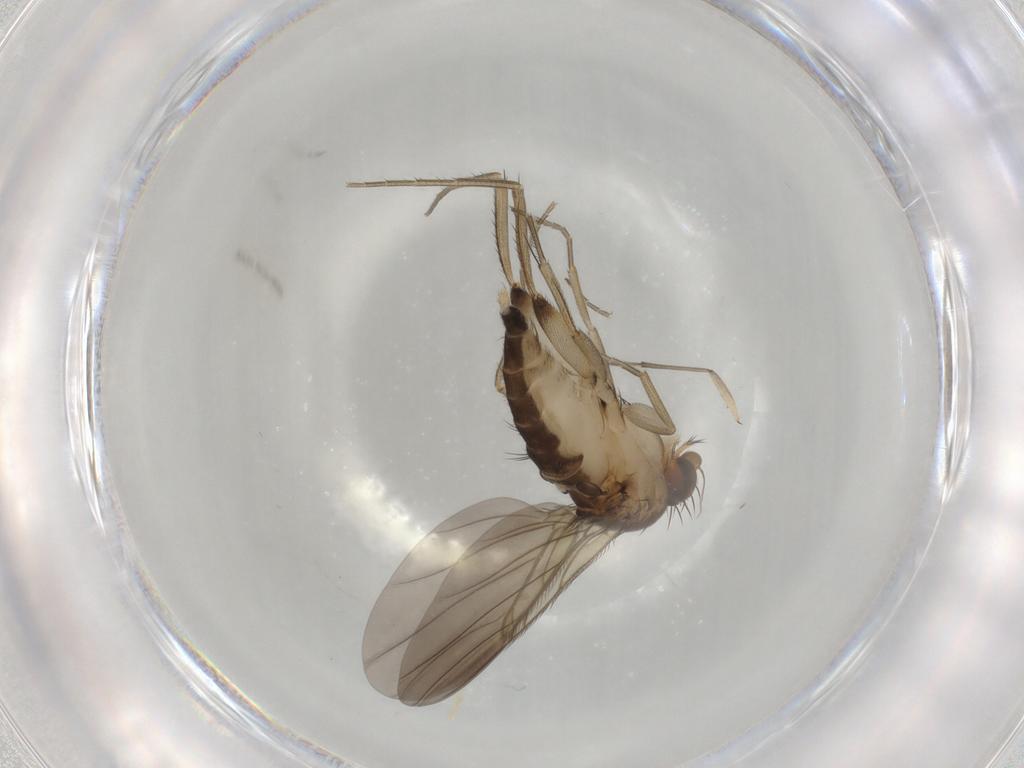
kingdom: Animalia
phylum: Arthropoda
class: Insecta
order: Diptera
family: Phoridae
